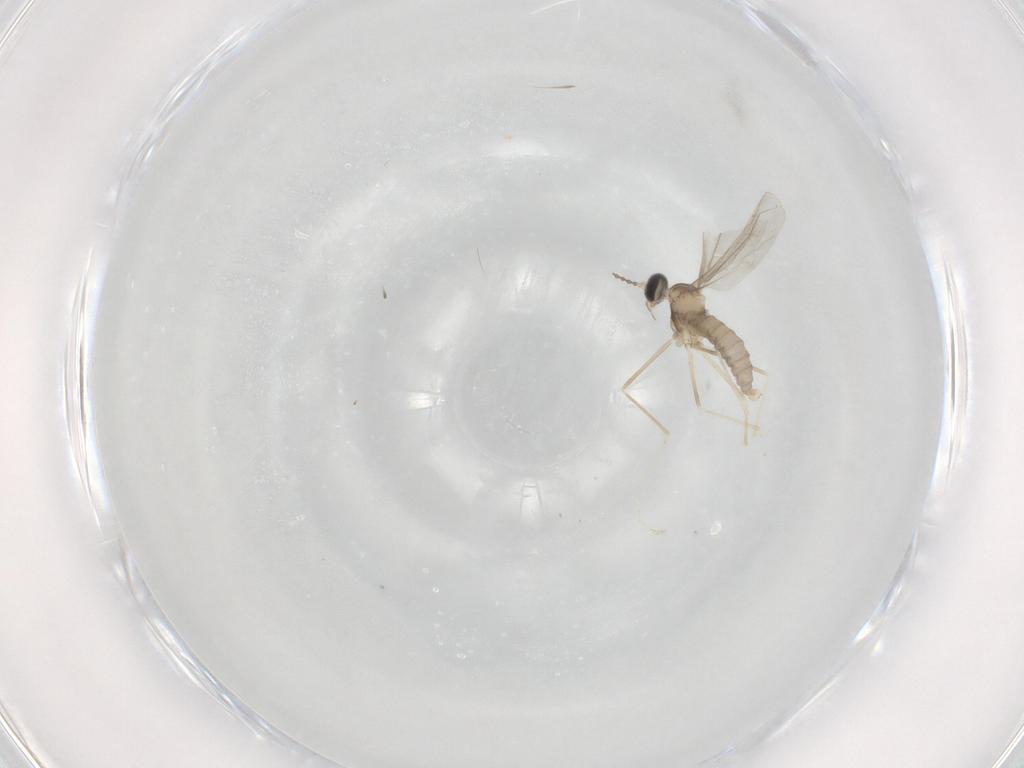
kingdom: Animalia
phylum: Arthropoda
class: Insecta
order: Diptera
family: Cecidomyiidae
